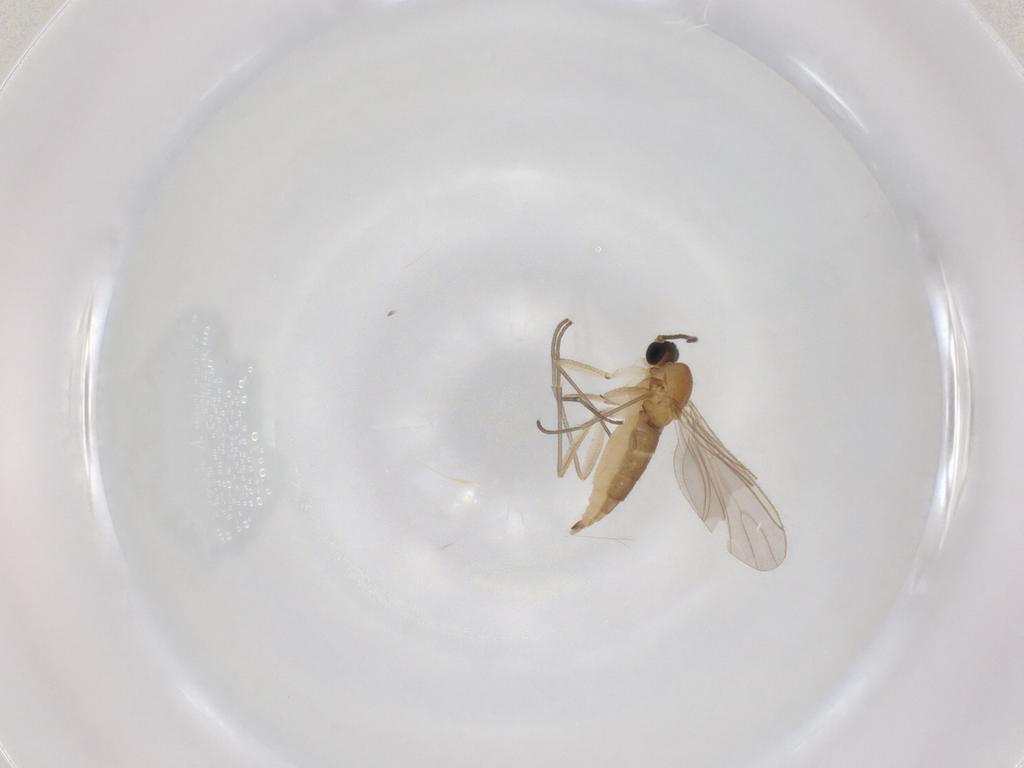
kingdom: Animalia
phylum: Arthropoda
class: Insecta
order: Diptera
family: Sciaridae
